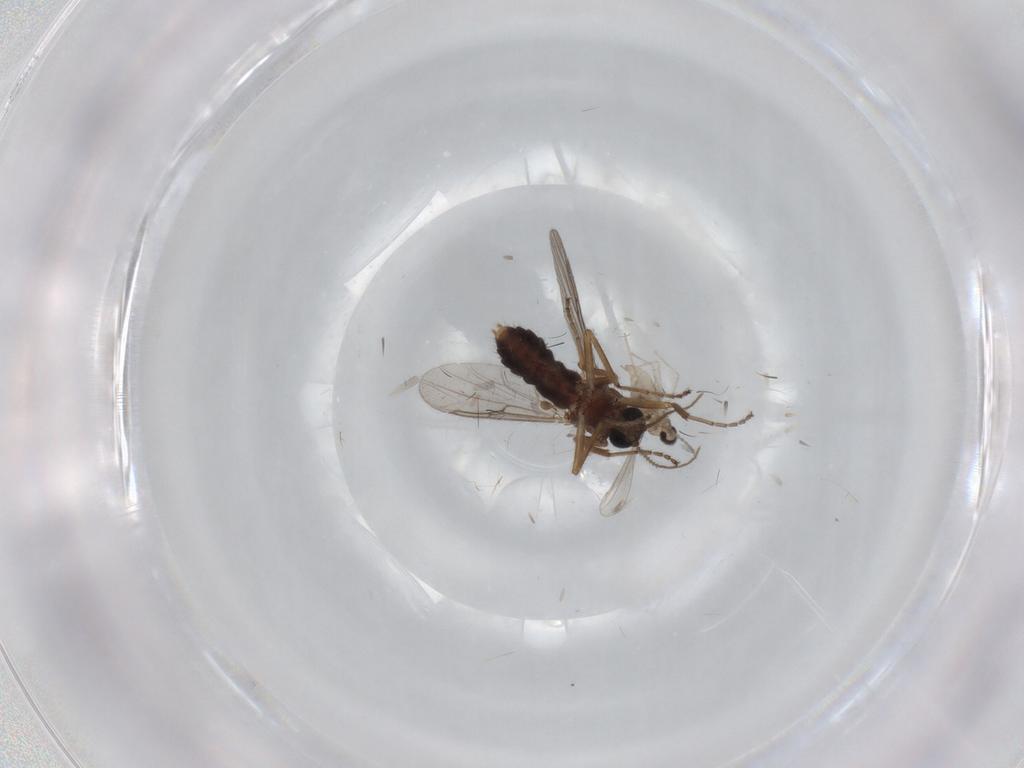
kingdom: Animalia
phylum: Arthropoda
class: Insecta
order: Diptera
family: Ceratopogonidae
